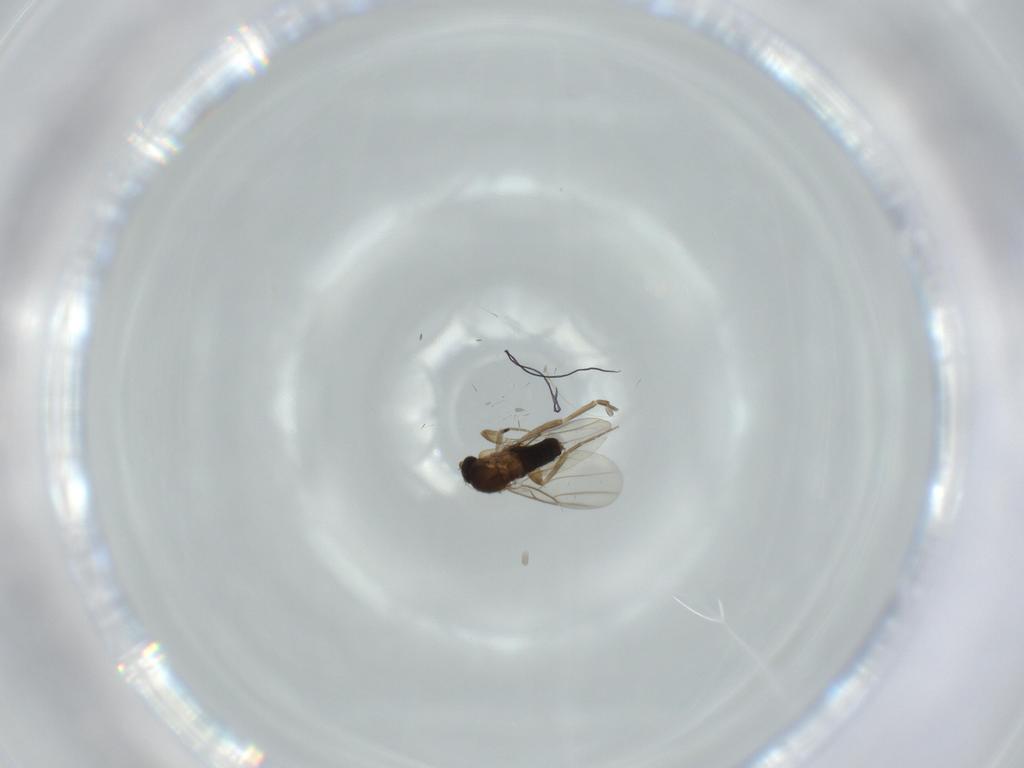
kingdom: Animalia
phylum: Arthropoda
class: Insecta
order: Diptera
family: Phoridae
